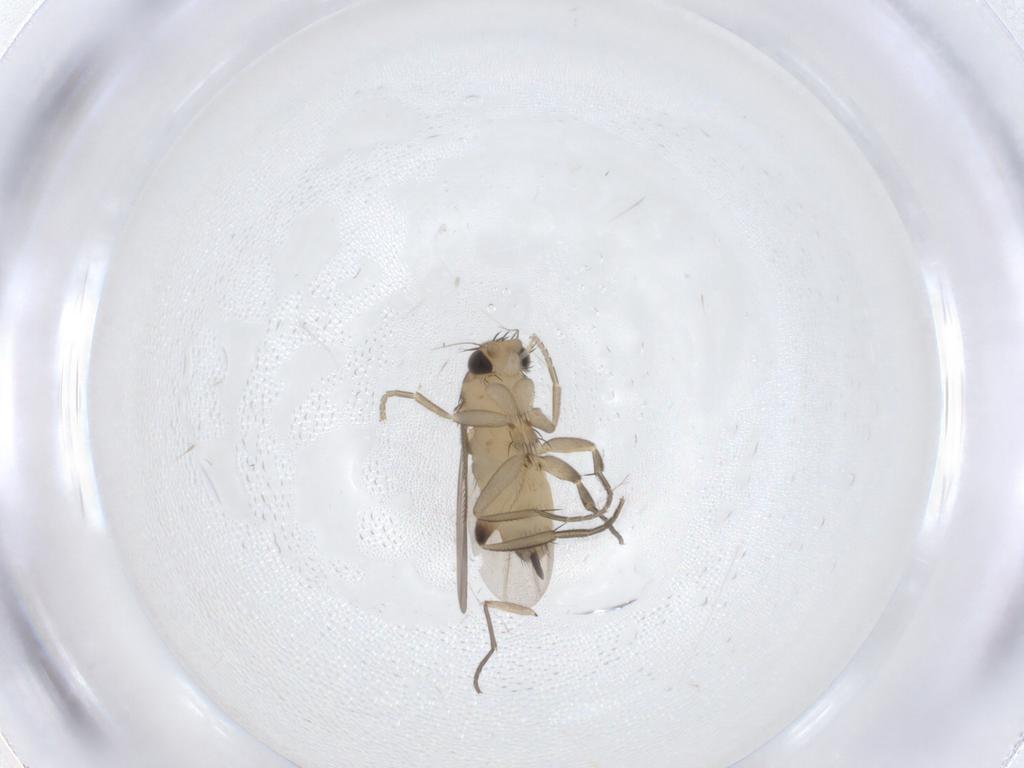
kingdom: Animalia
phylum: Arthropoda
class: Insecta
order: Diptera
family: Phoridae
